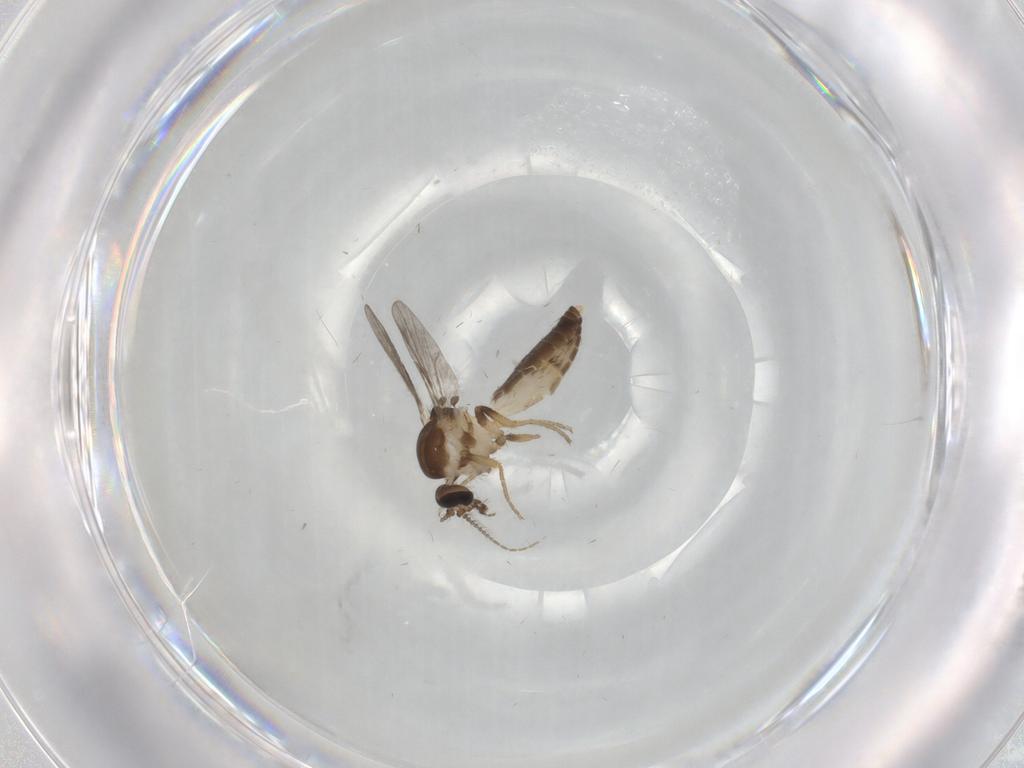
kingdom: Animalia
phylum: Arthropoda
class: Insecta
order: Diptera
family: Ceratopogonidae
